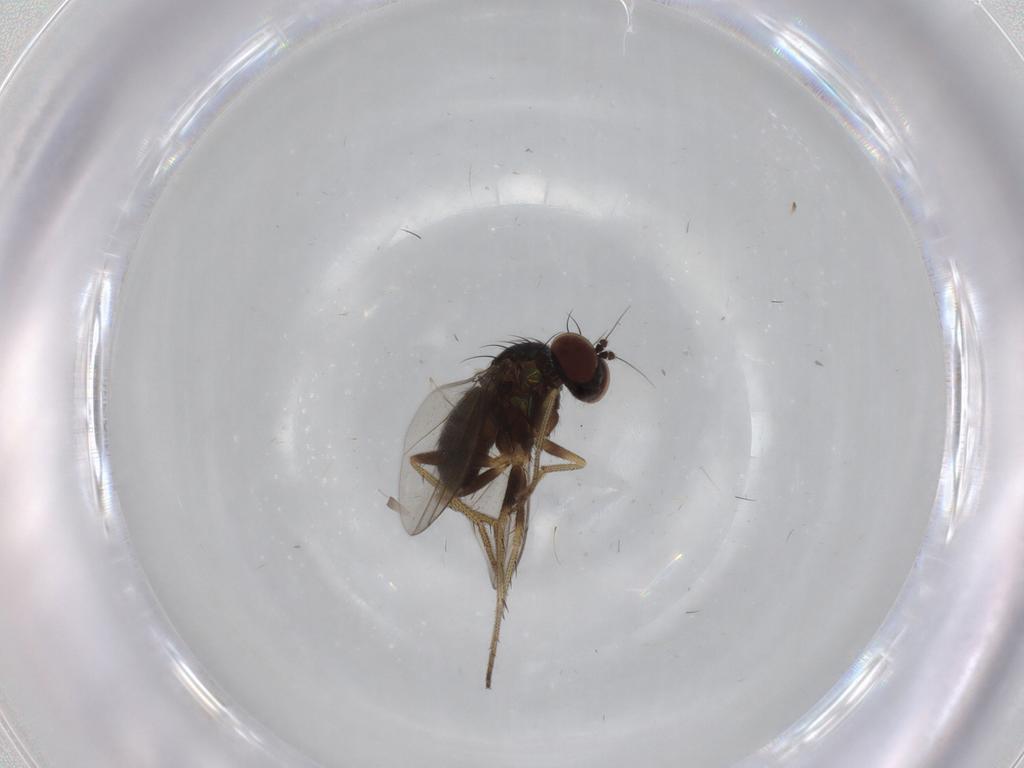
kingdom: Animalia
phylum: Arthropoda
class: Insecta
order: Diptera
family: Dolichopodidae
